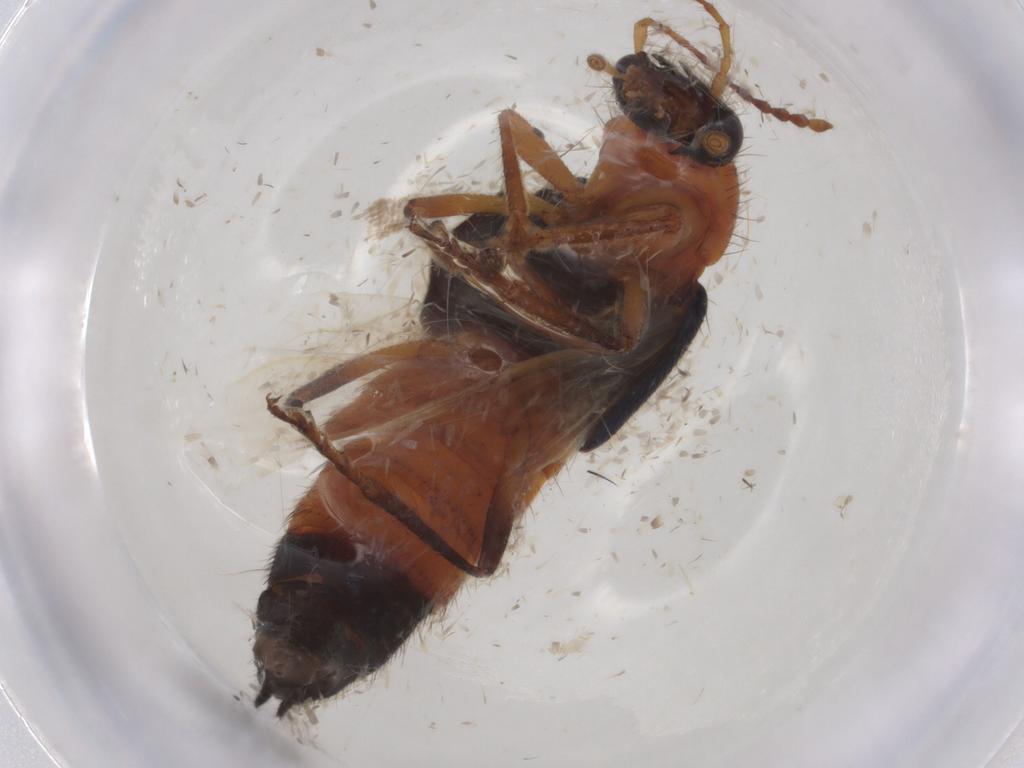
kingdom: Animalia
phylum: Arthropoda
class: Insecta
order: Coleoptera
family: Staphylinidae
